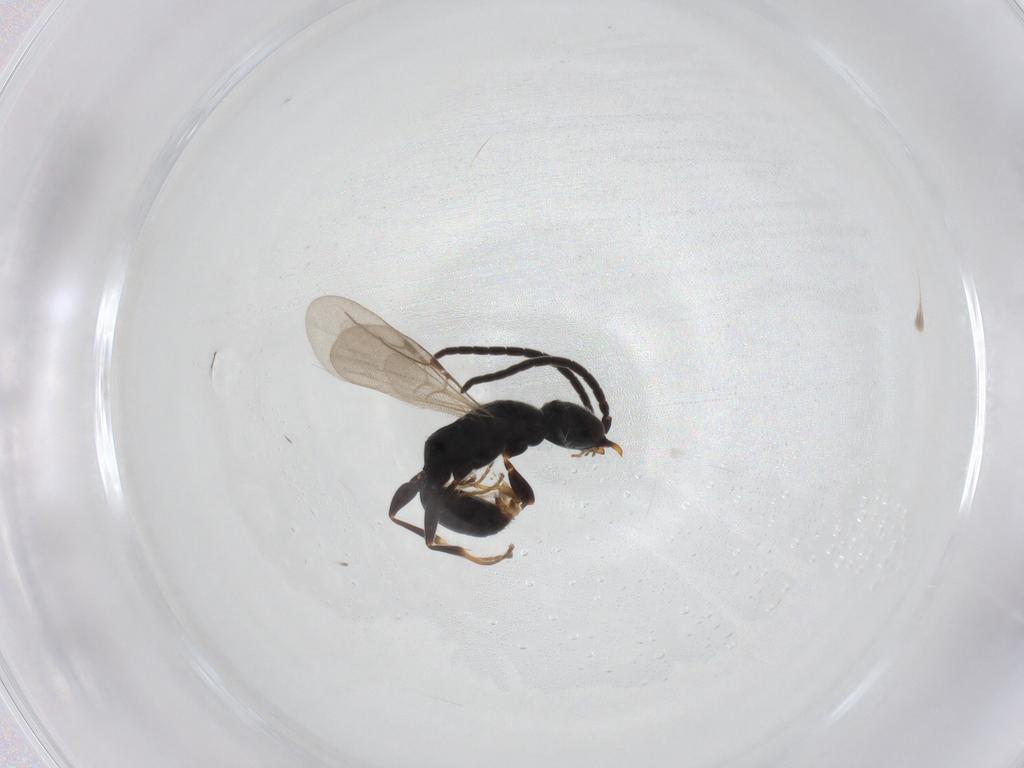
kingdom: Animalia
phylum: Arthropoda
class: Insecta
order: Hymenoptera
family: Bethylidae
